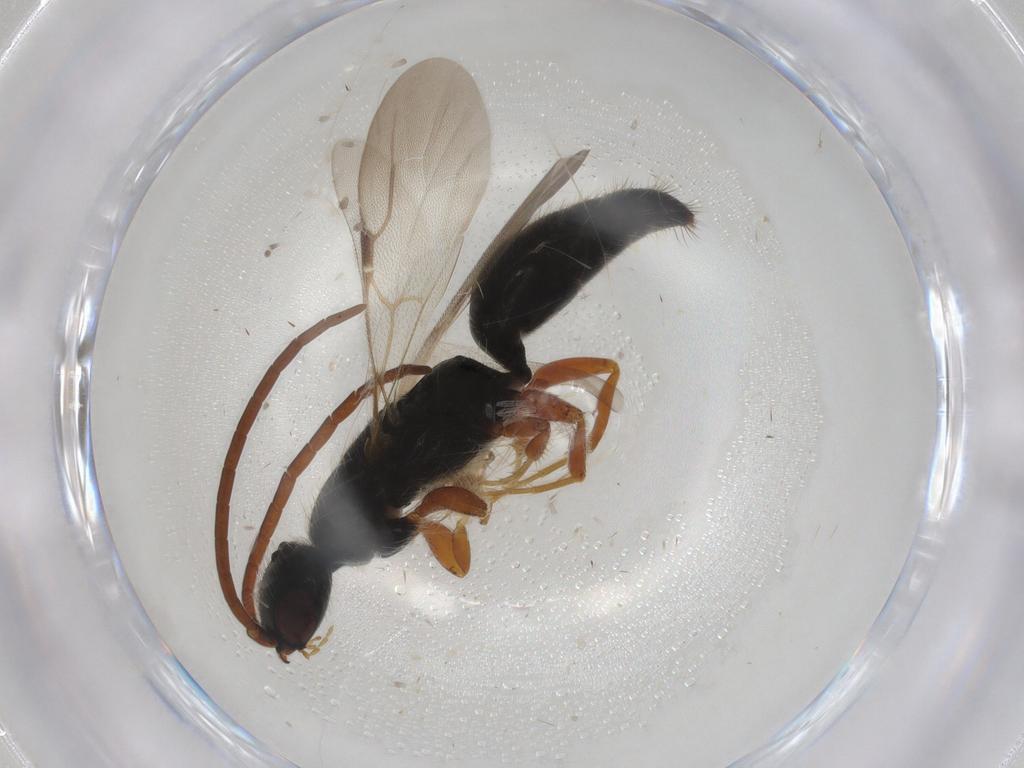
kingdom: Animalia
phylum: Arthropoda
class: Insecta
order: Hymenoptera
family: Bethylidae
